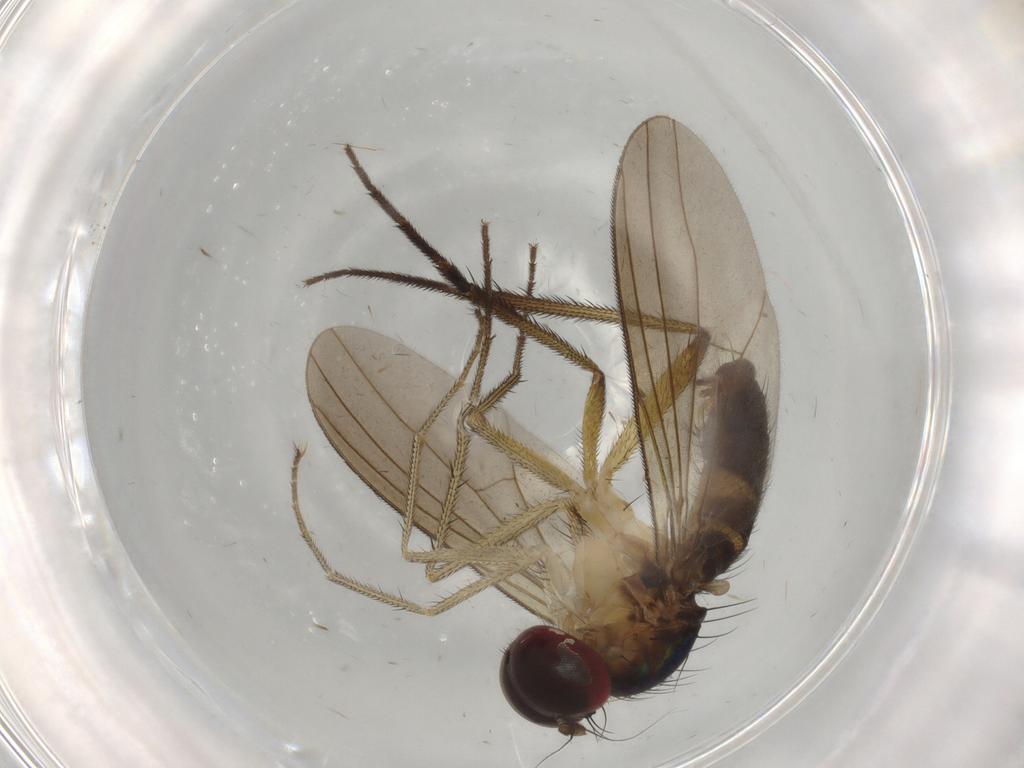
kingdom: Animalia
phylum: Arthropoda
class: Insecta
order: Diptera
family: Dolichopodidae
